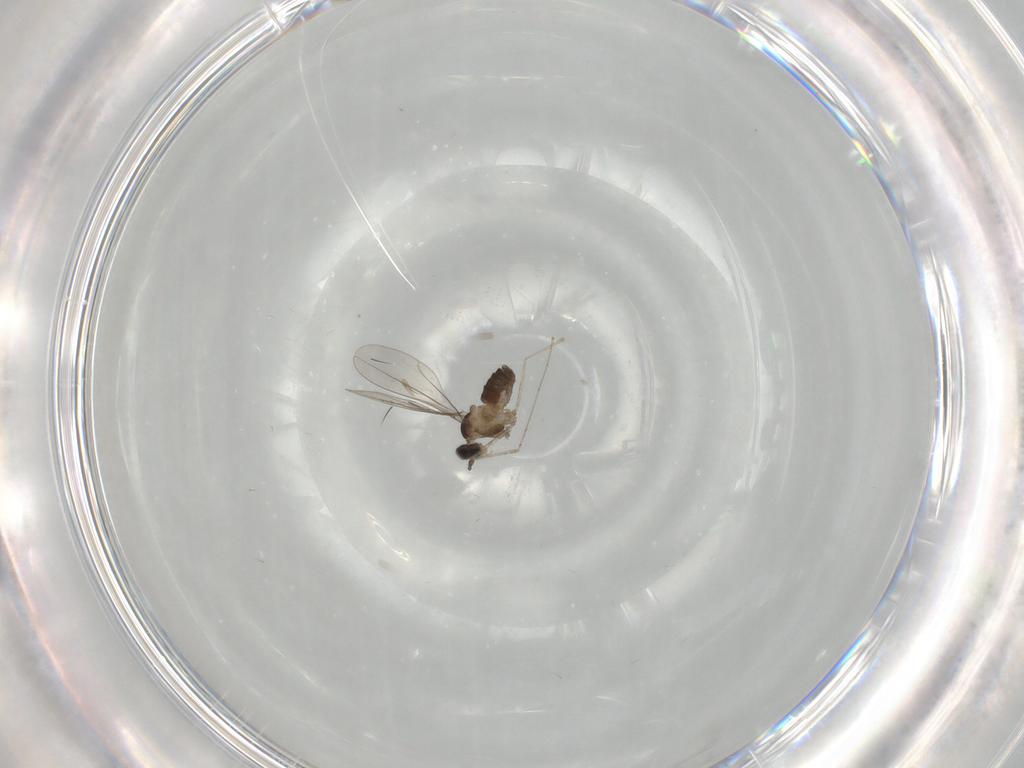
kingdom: Animalia
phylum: Arthropoda
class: Insecta
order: Diptera
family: Cecidomyiidae
